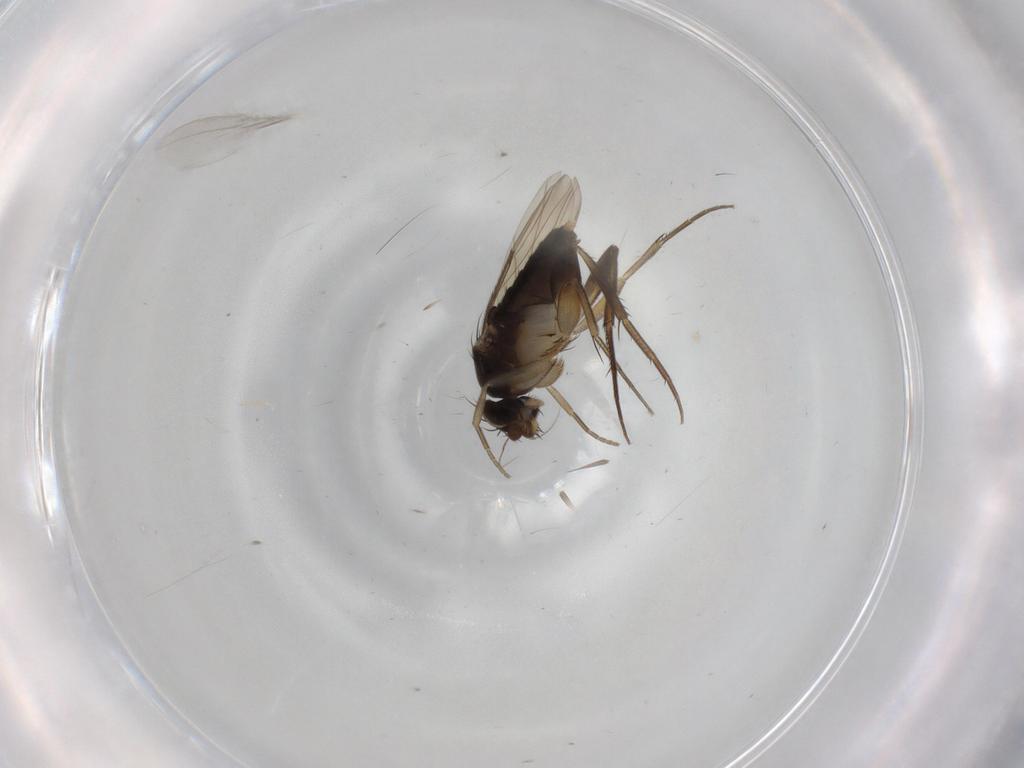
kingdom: Animalia
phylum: Arthropoda
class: Insecta
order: Diptera
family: Phoridae
